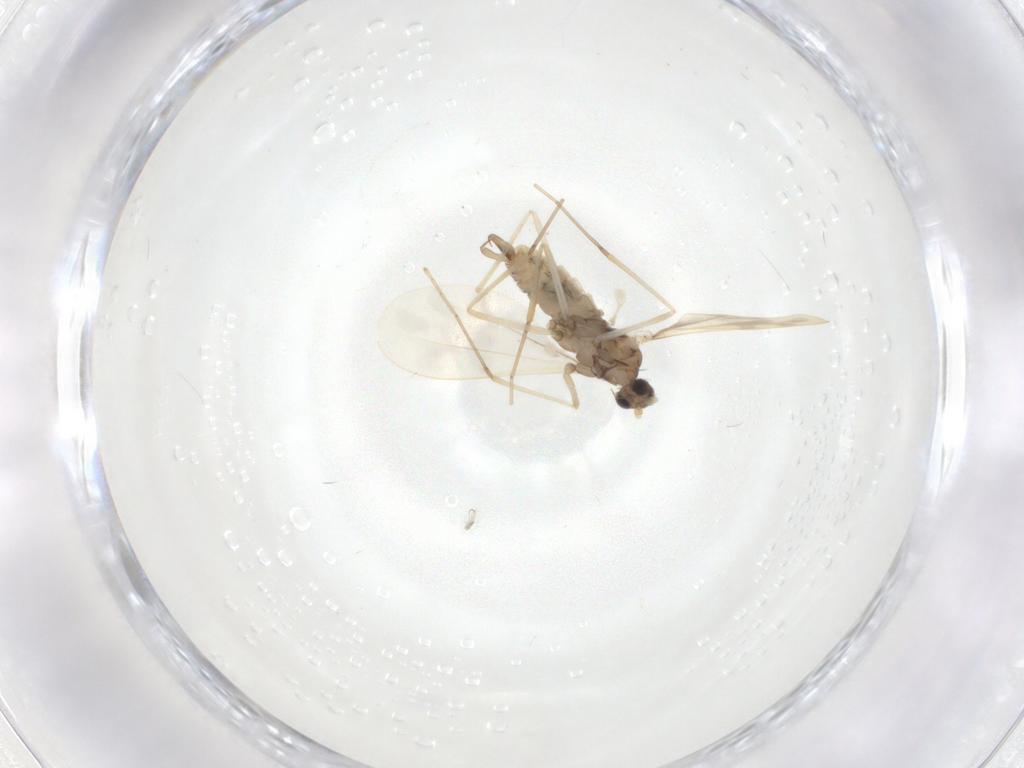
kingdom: Animalia
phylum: Arthropoda
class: Insecta
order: Diptera
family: Cecidomyiidae
